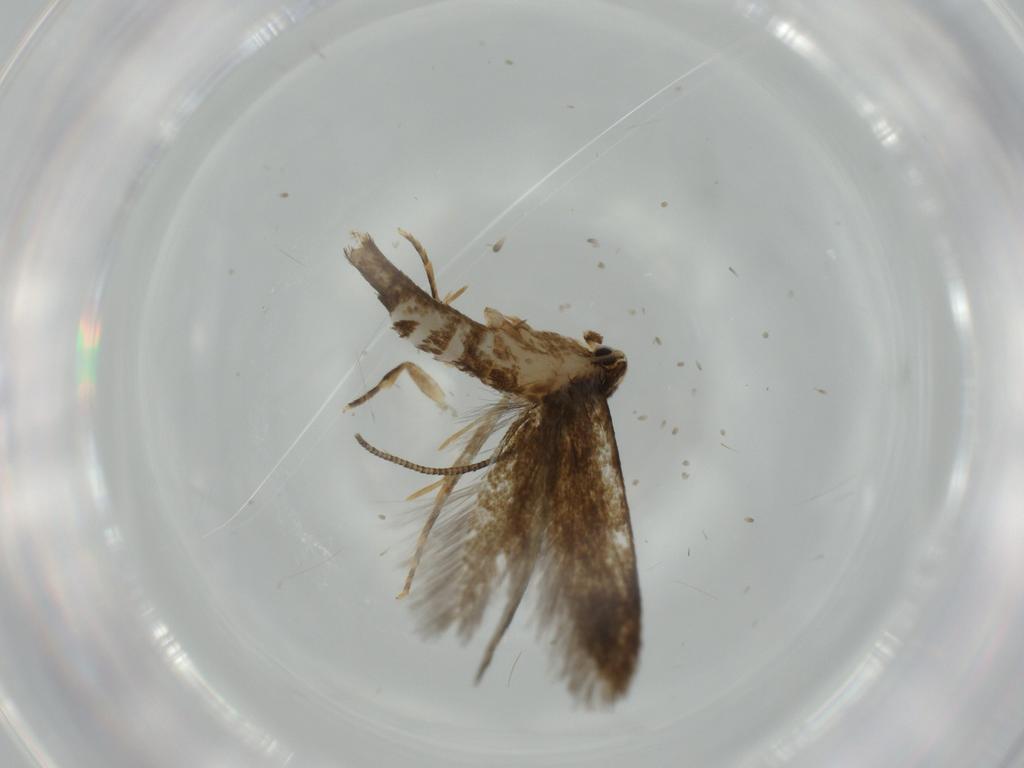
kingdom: Animalia
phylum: Arthropoda
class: Insecta
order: Lepidoptera
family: Tineidae
